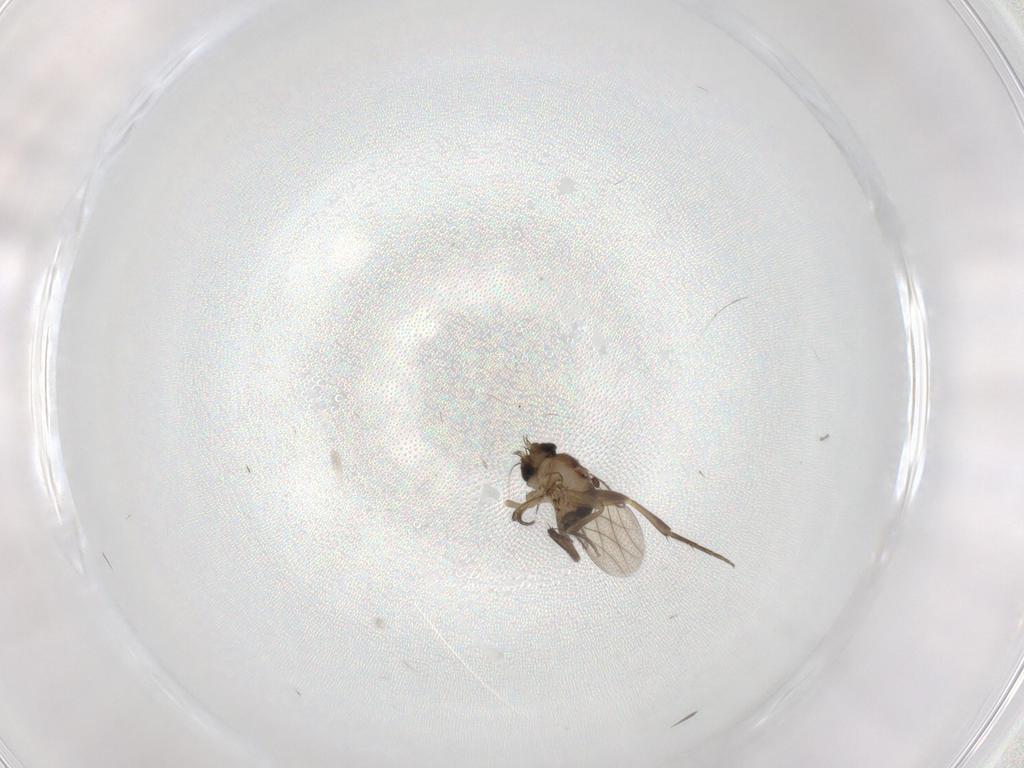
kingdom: Animalia
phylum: Arthropoda
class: Insecta
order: Diptera
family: Phoridae
